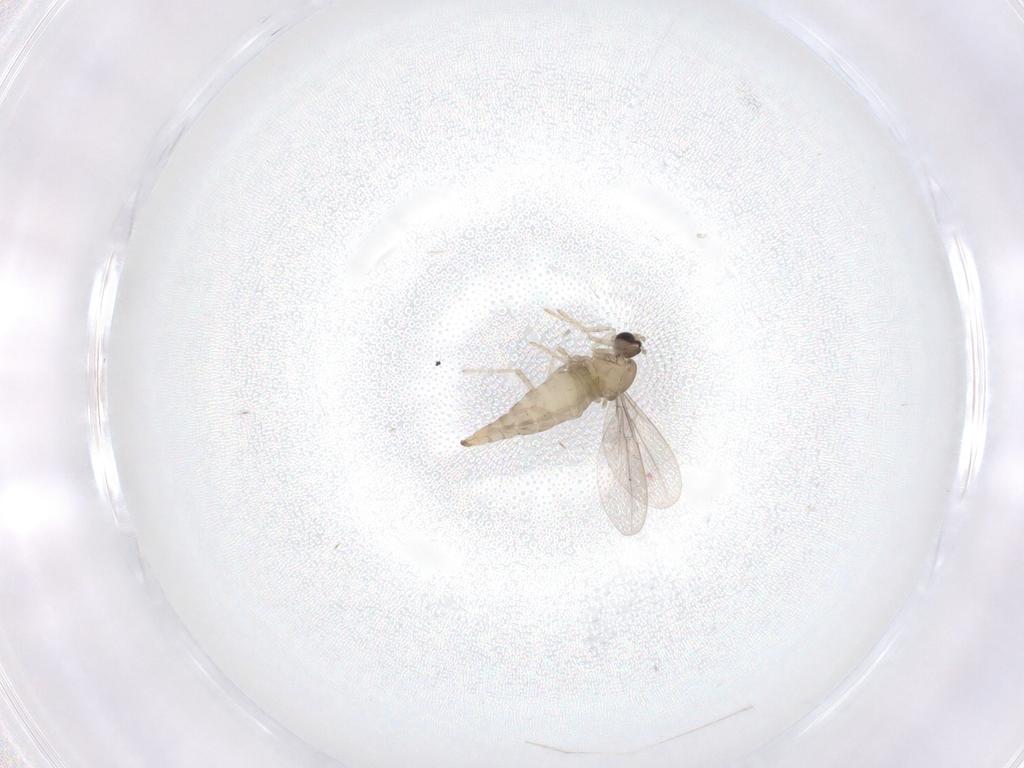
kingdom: Animalia
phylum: Arthropoda
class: Insecta
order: Diptera
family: Cecidomyiidae
